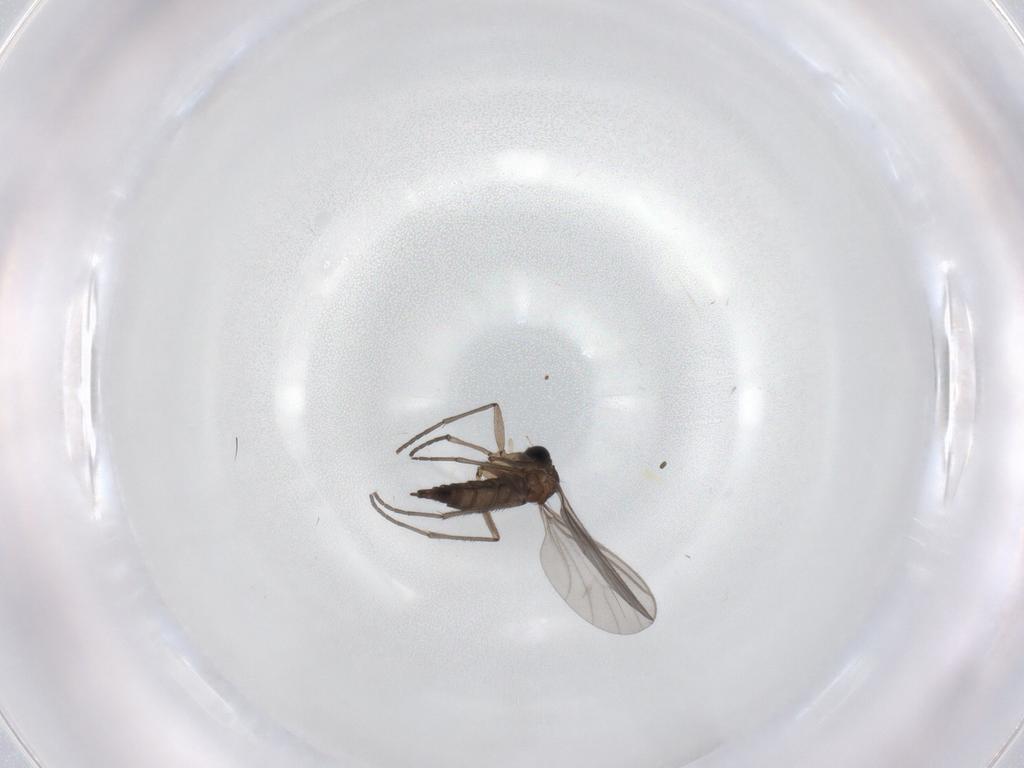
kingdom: Animalia
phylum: Arthropoda
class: Insecta
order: Diptera
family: Sciaridae
